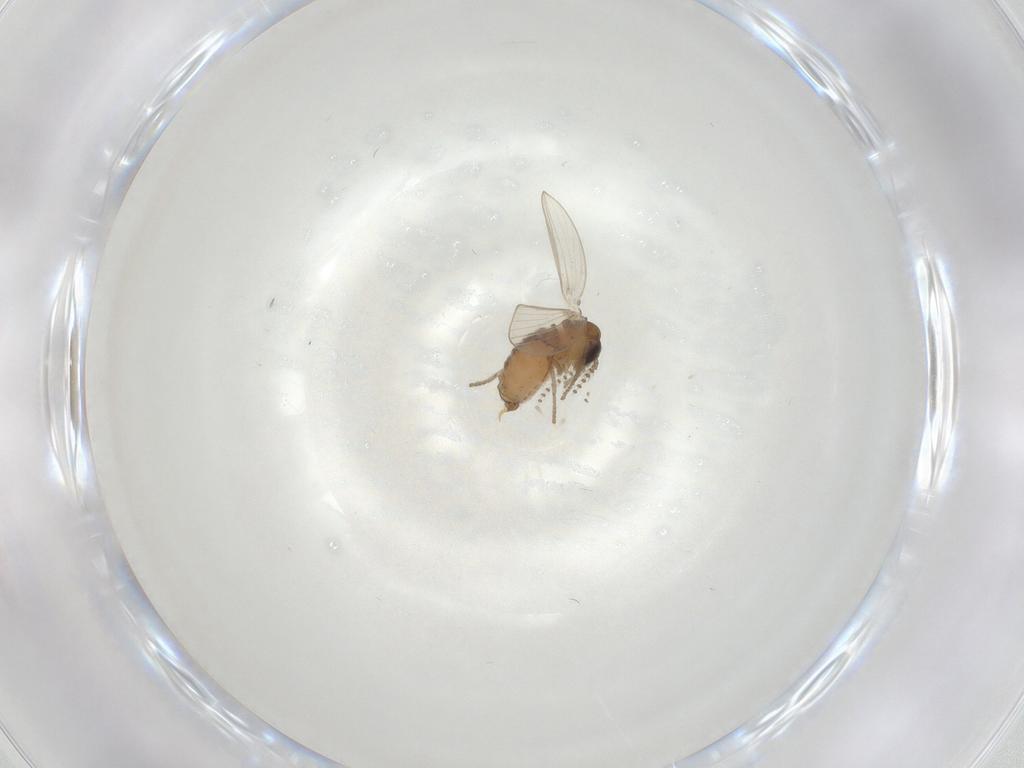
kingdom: Animalia
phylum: Arthropoda
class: Insecta
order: Diptera
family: Psychodidae
